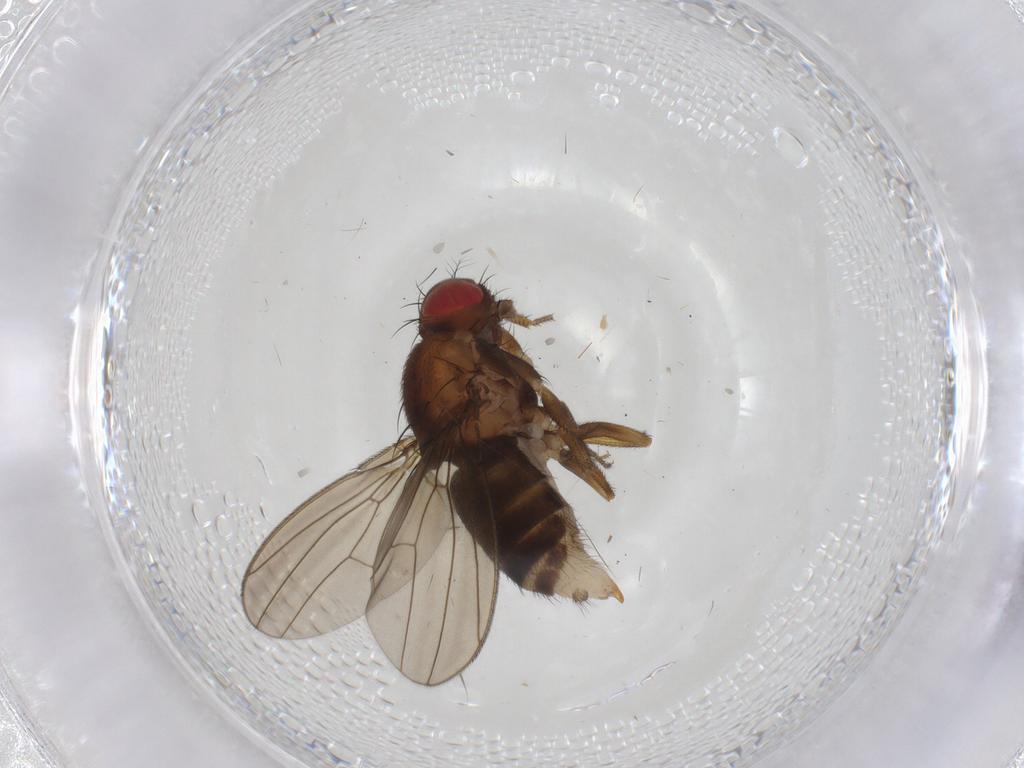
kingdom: Animalia
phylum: Arthropoda
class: Insecta
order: Diptera
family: Drosophilidae
